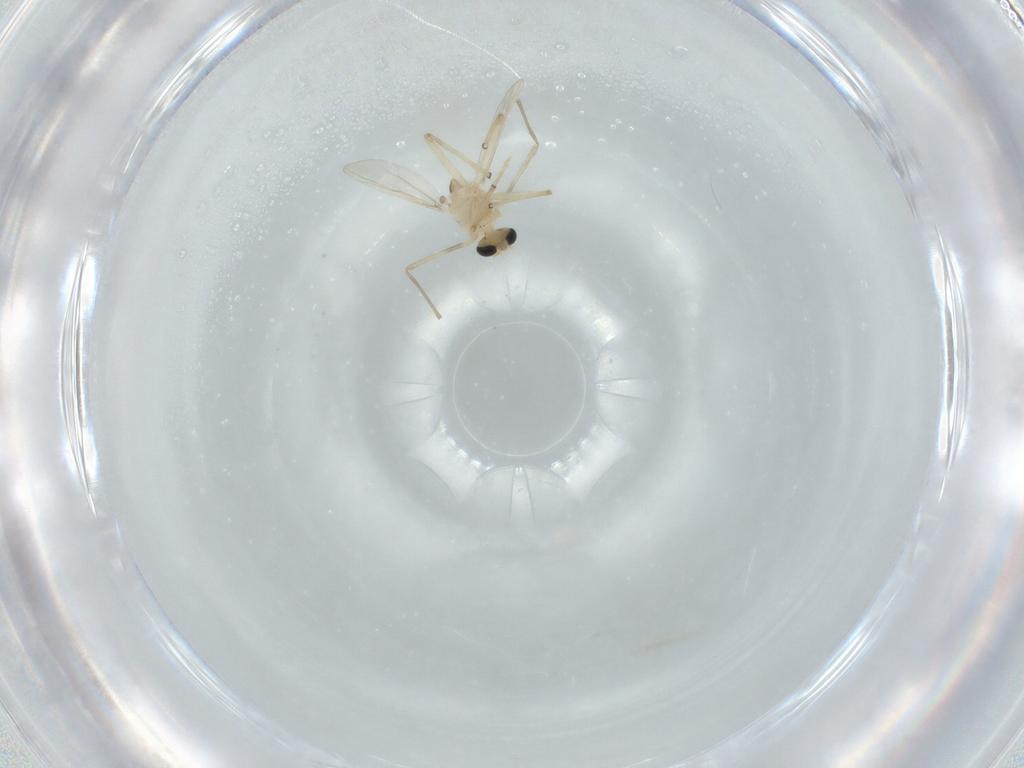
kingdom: Animalia
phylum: Arthropoda
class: Insecta
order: Diptera
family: Chironomidae
